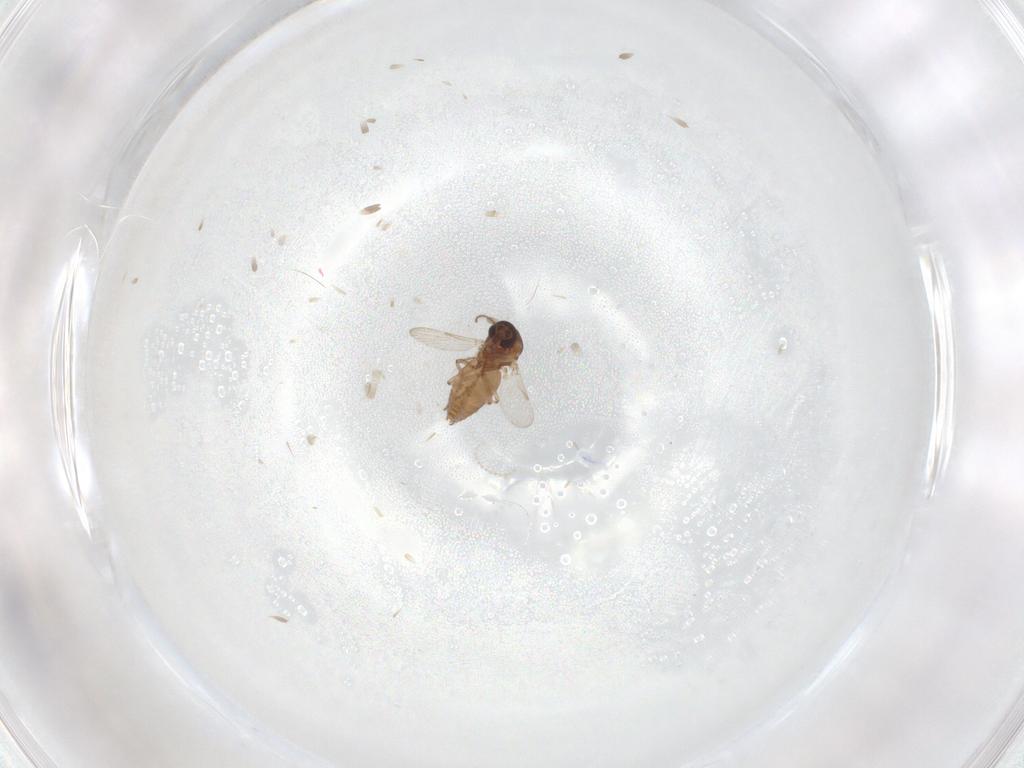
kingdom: Animalia
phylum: Arthropoda
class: Insecta
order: Diptera
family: Ceratopogonidae
